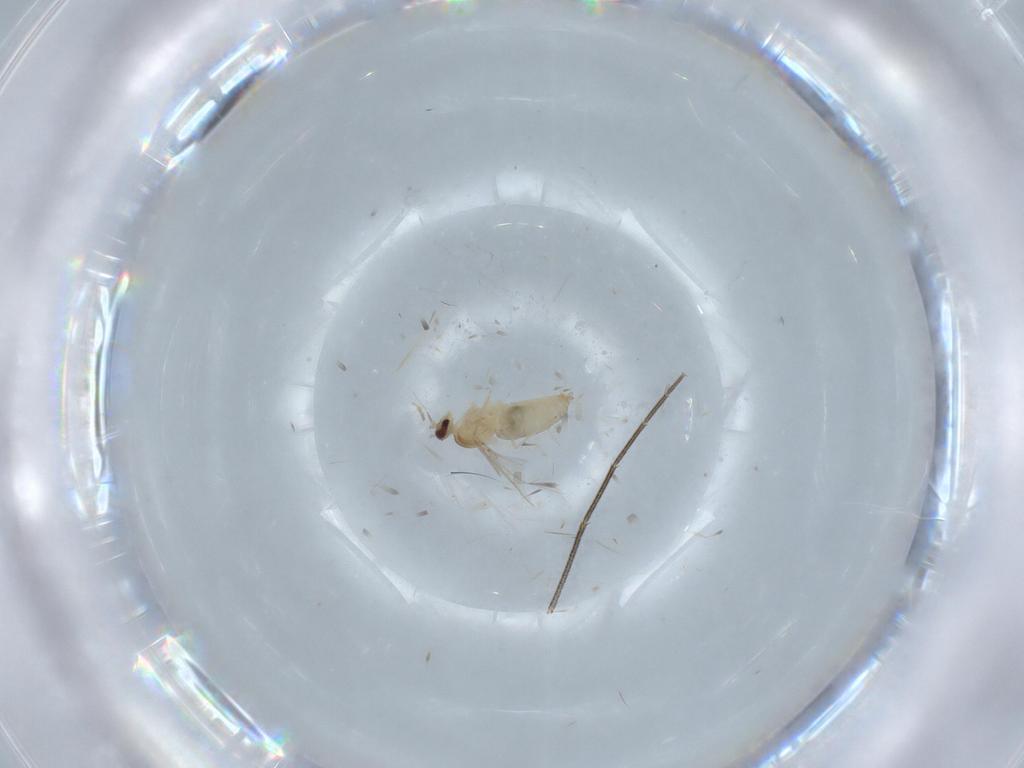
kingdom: Animalia
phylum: Arthropoda
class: Insecta
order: Diptera
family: Cecidomyiidae
